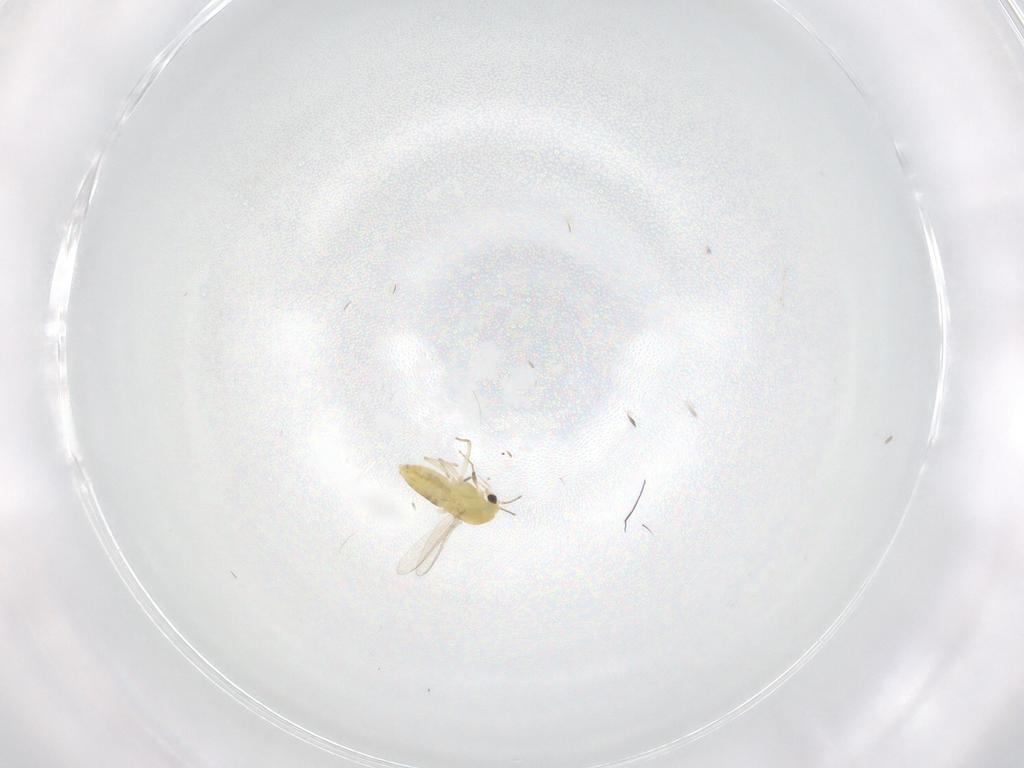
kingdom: Animalia
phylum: Arthropoda
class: Insecta
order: Diptera
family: Chironomidae
